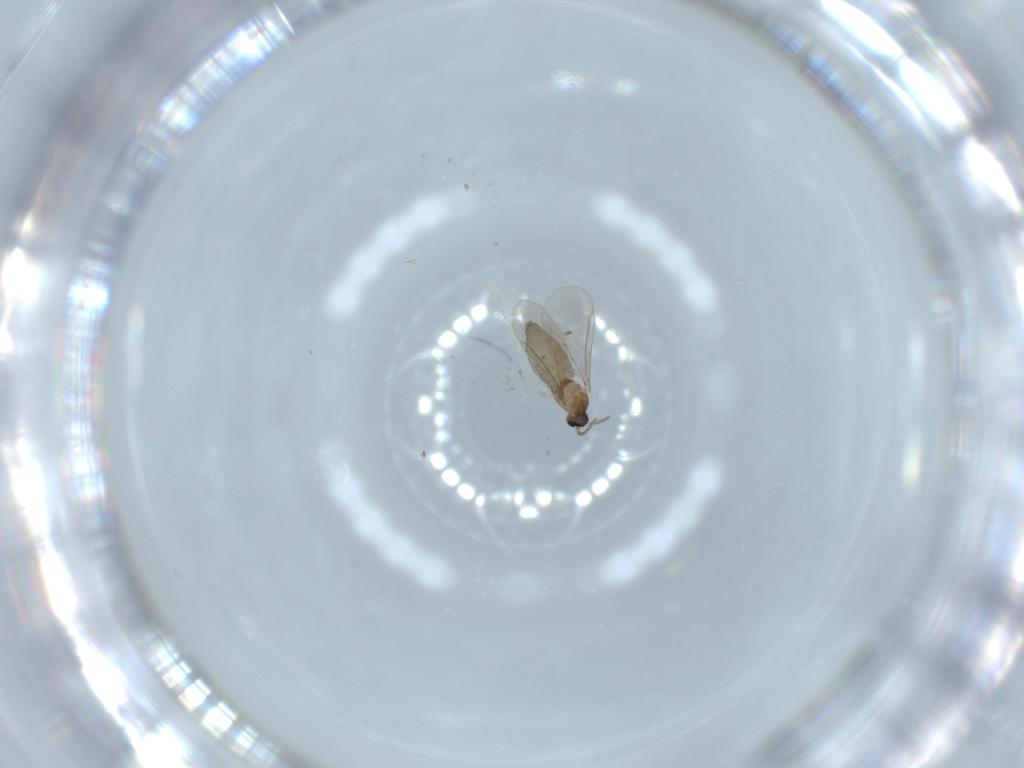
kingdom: Animalia
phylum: Arthropoda
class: Insecta
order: Diptera
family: Cecidomyiidae
